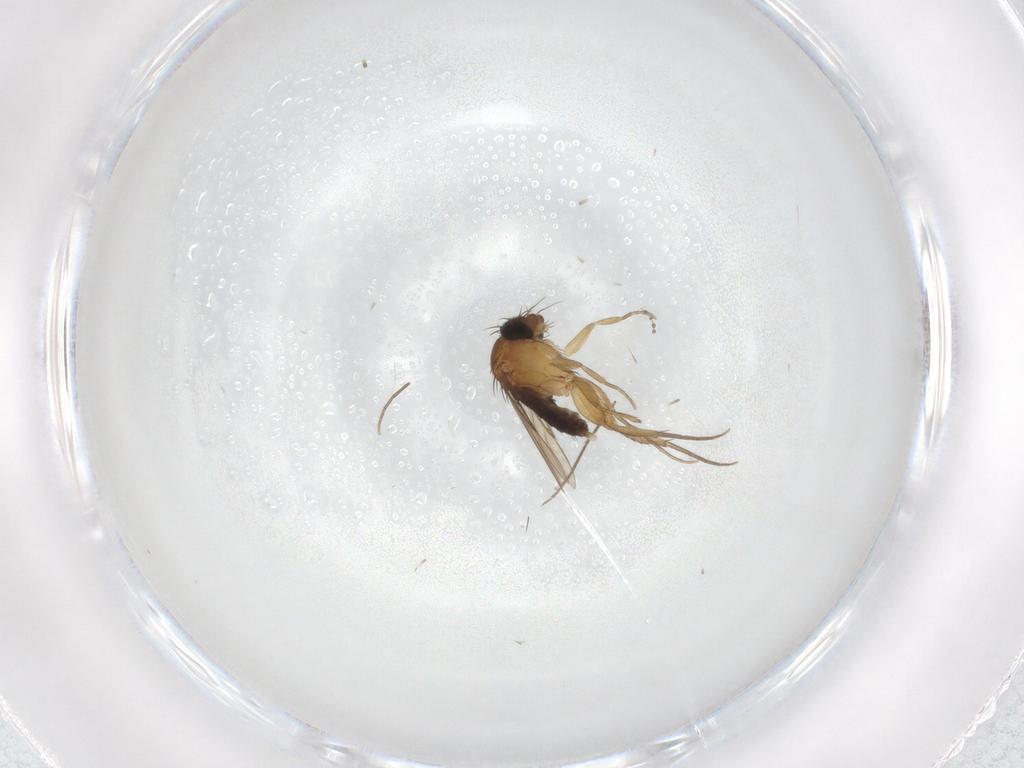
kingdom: Animalia
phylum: Arthropoda
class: Insecta
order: Diptera
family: Phoridae
